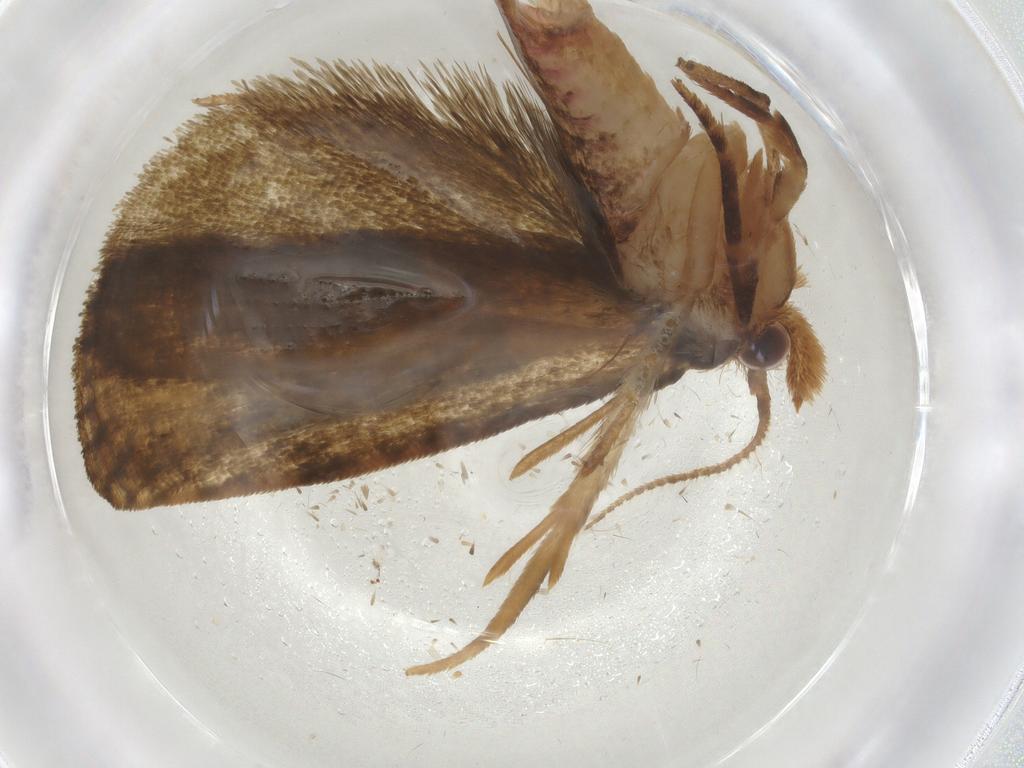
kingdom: Animalia
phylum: Arthropoda
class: Insecta
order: Lepidoptera
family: Geometridae
